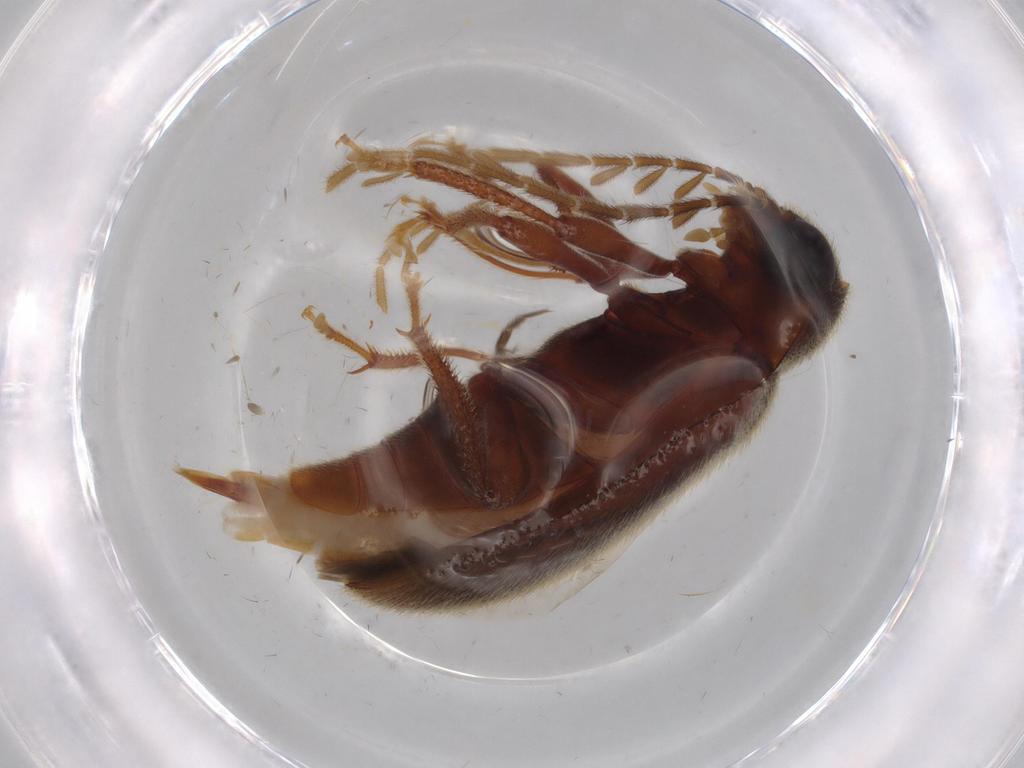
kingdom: Animalia
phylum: Arthropoda
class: Insecta
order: Coleoptera
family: Ptilodactylidae
